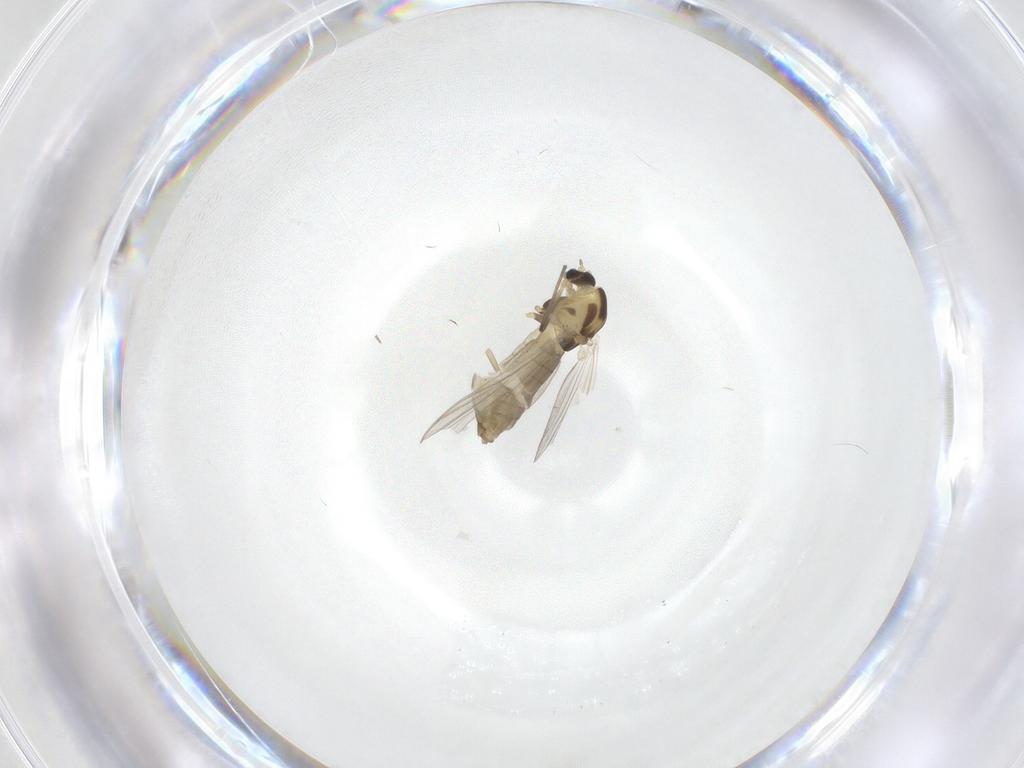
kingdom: Animalia
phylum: Arthropoda
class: Insecta
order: Diptera
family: Chironomidae
